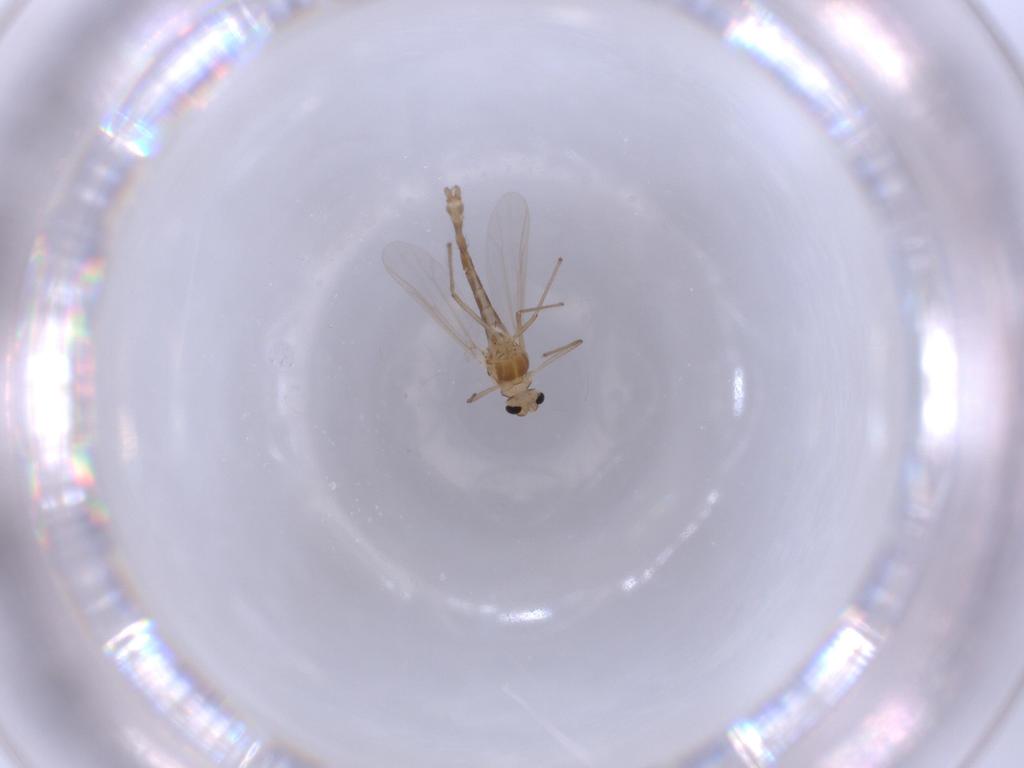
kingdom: Animalia
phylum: Arthropoda
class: Insecta
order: Diptera
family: Chironomidae
